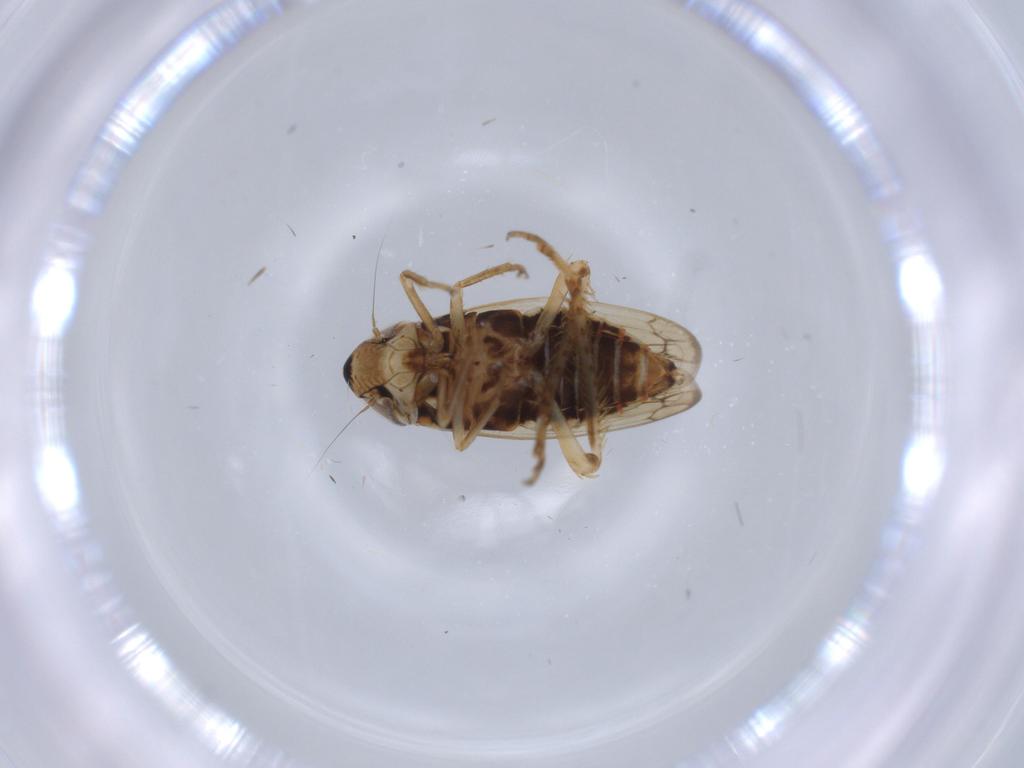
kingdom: Animalia
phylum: Arthropoda
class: Insecta
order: Hemiptera
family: Cicadellidae
